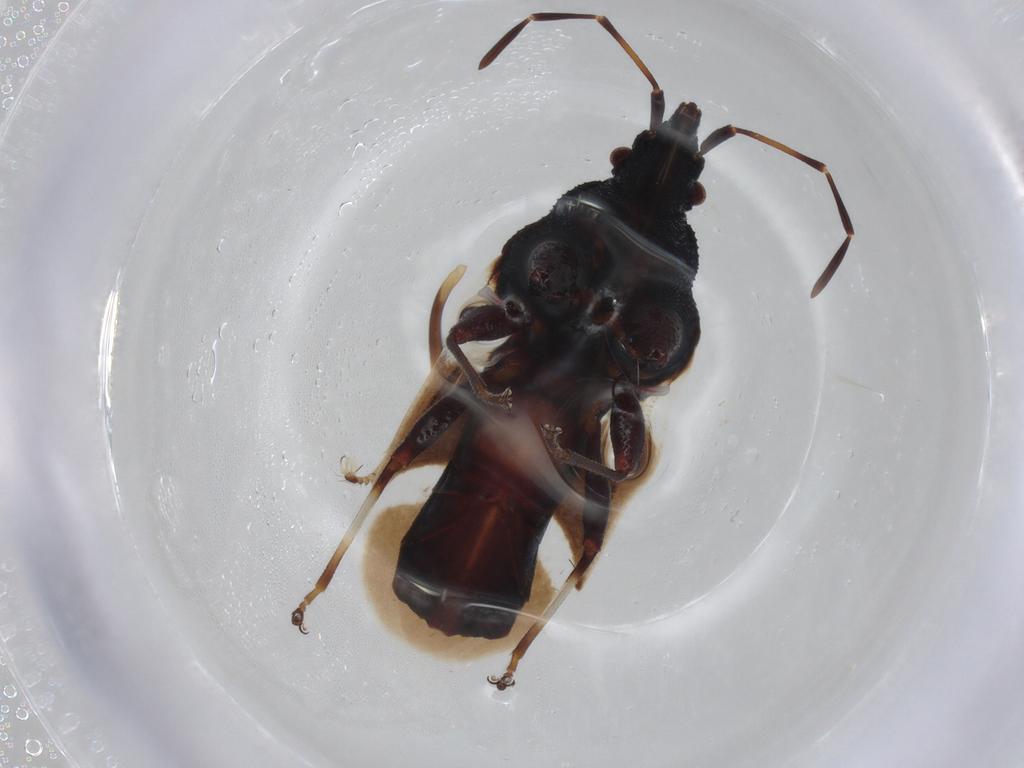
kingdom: Animalia
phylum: Arthropoda
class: Insecta
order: Hemiptera
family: Oxycarenidae
